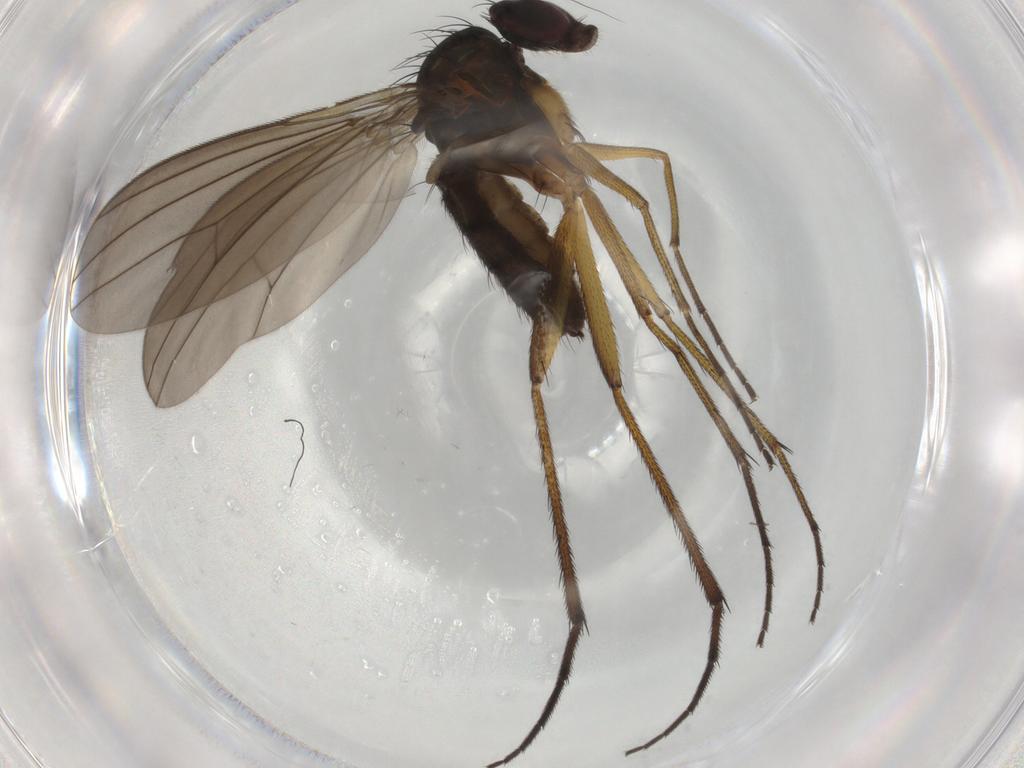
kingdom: Animalia
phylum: Arthropoda
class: Insecta
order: Diptera
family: Dolichopodidae
